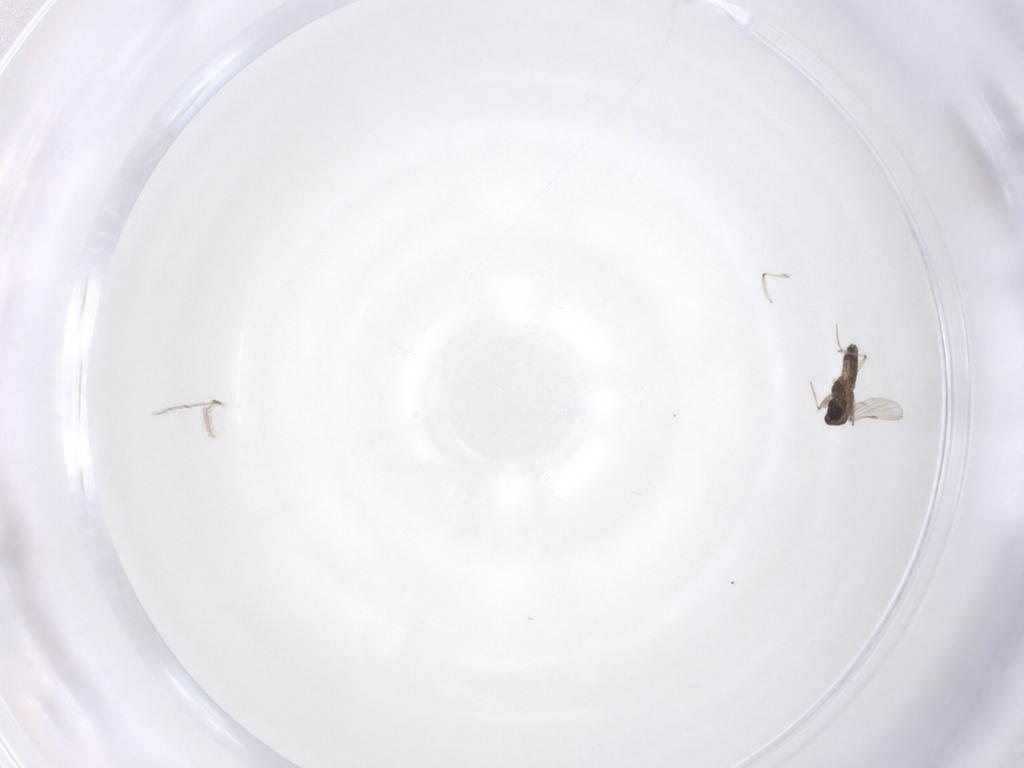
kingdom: Animalia
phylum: Arthropoda
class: Insecta
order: Diptera
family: Chironomidae
